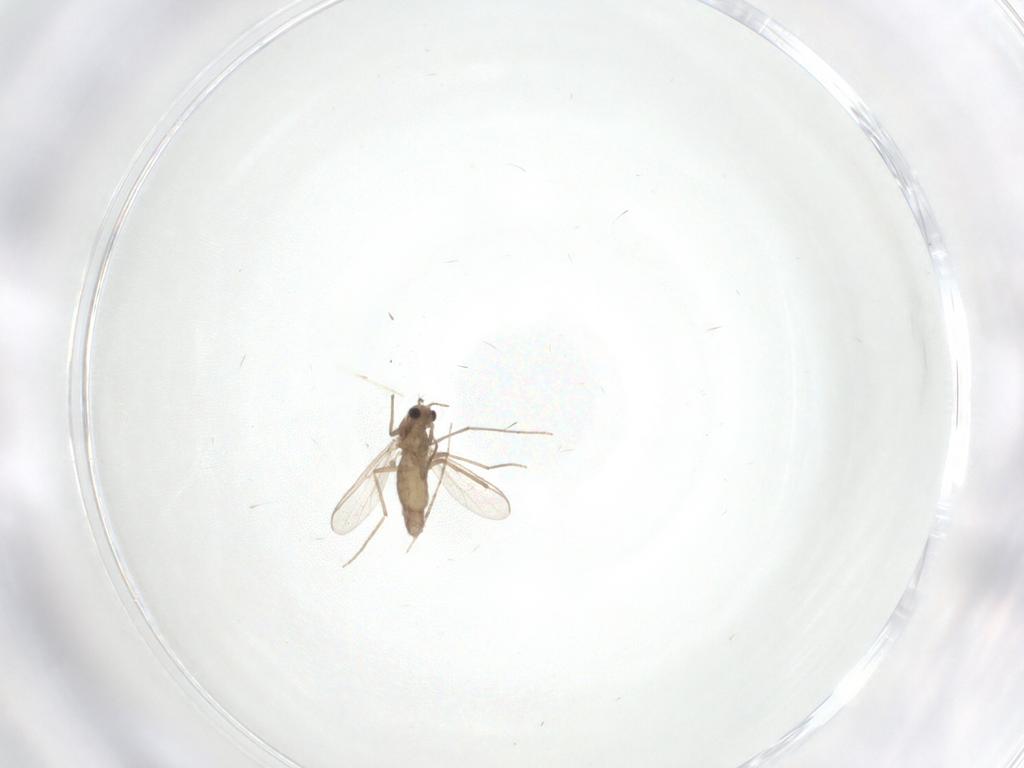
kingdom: Animalia
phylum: Arthropoda
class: Insecta
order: Diptera
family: Chironomidae
